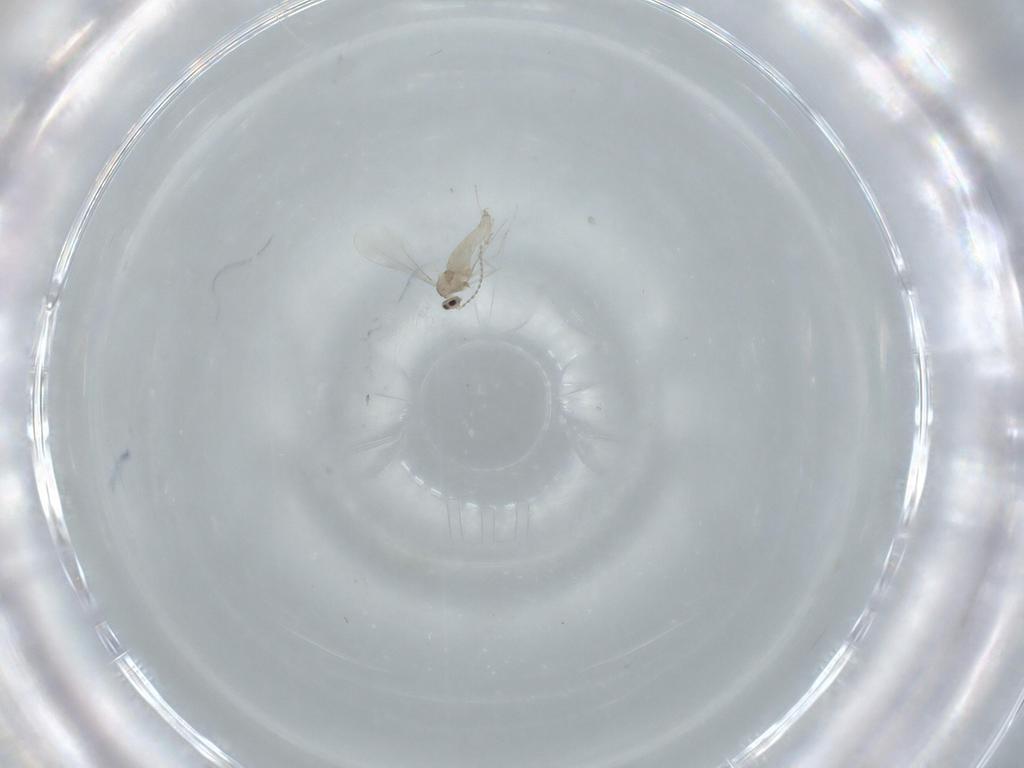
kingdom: Animalia
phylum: Arthropoda
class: Insecta
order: Diptera
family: Cecidomyiidae
